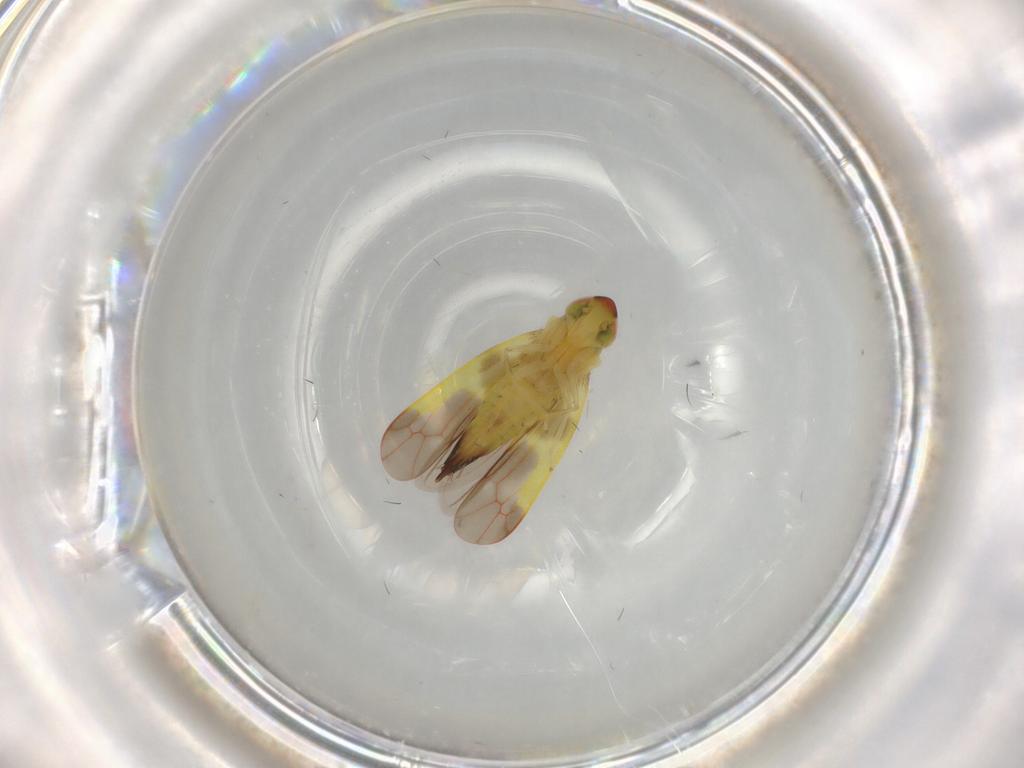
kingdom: Animalia
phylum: Arthropoda
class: Insecta
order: Hemiptera
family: Cicadellidae
